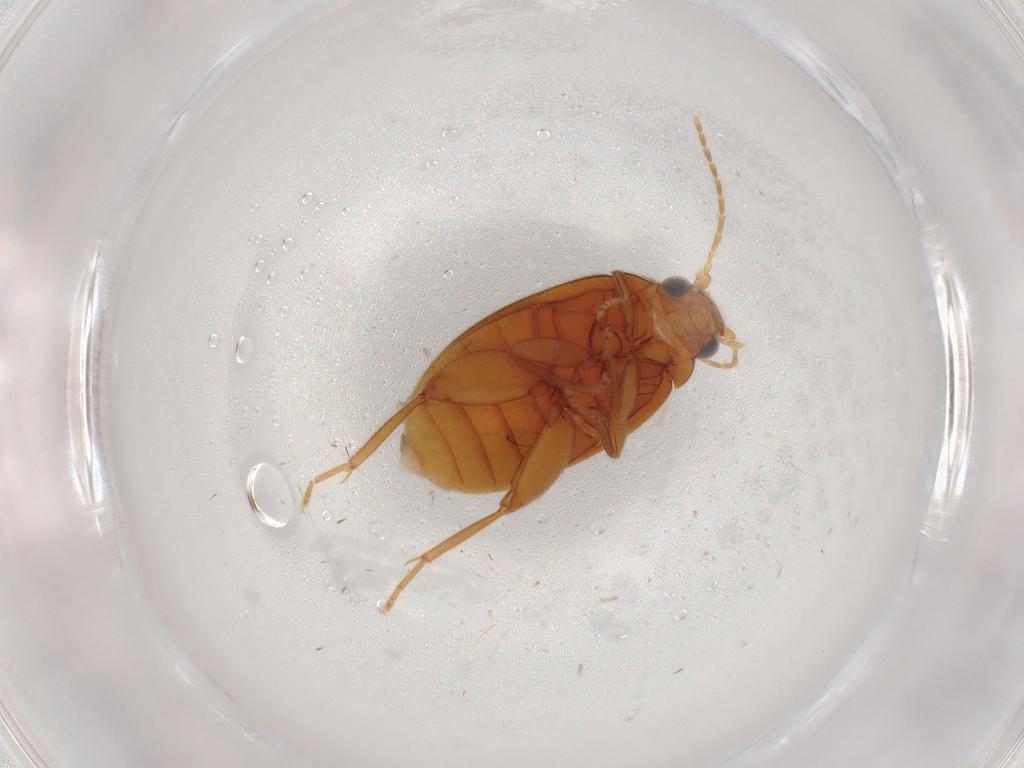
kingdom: Animalia
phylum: Arthropoda
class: Insecta
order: Coleoptera
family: Scirtidae
